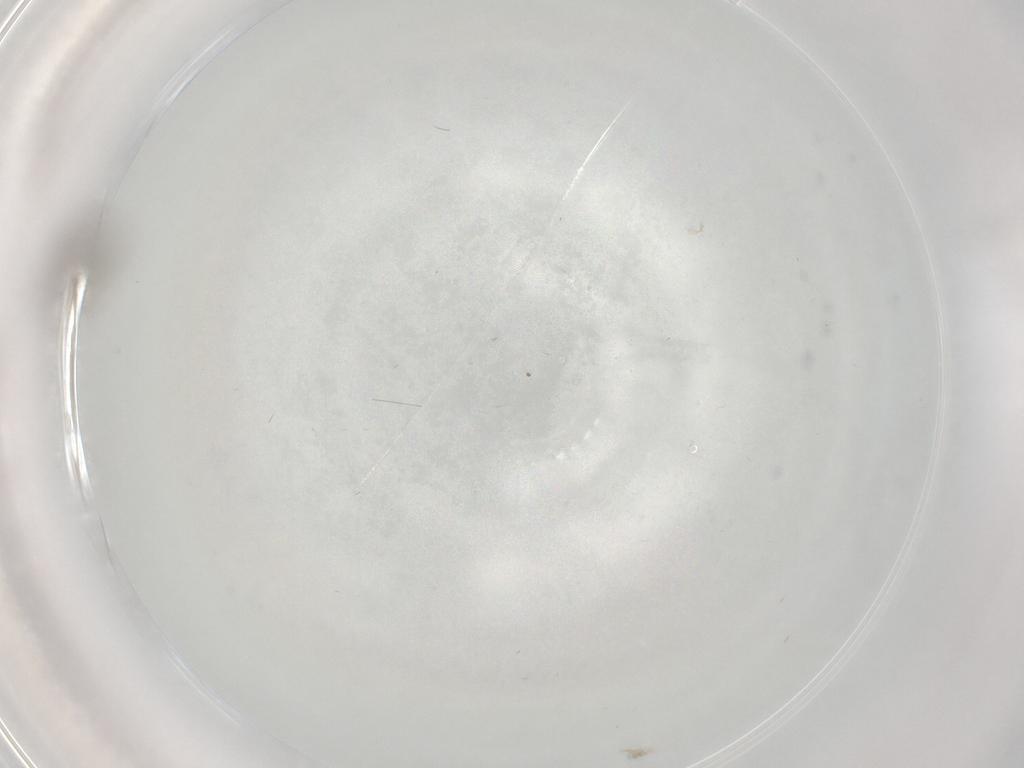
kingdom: Animalia
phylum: Arthropoda
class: Insecta
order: Diptera
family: Cecidomyiidae
